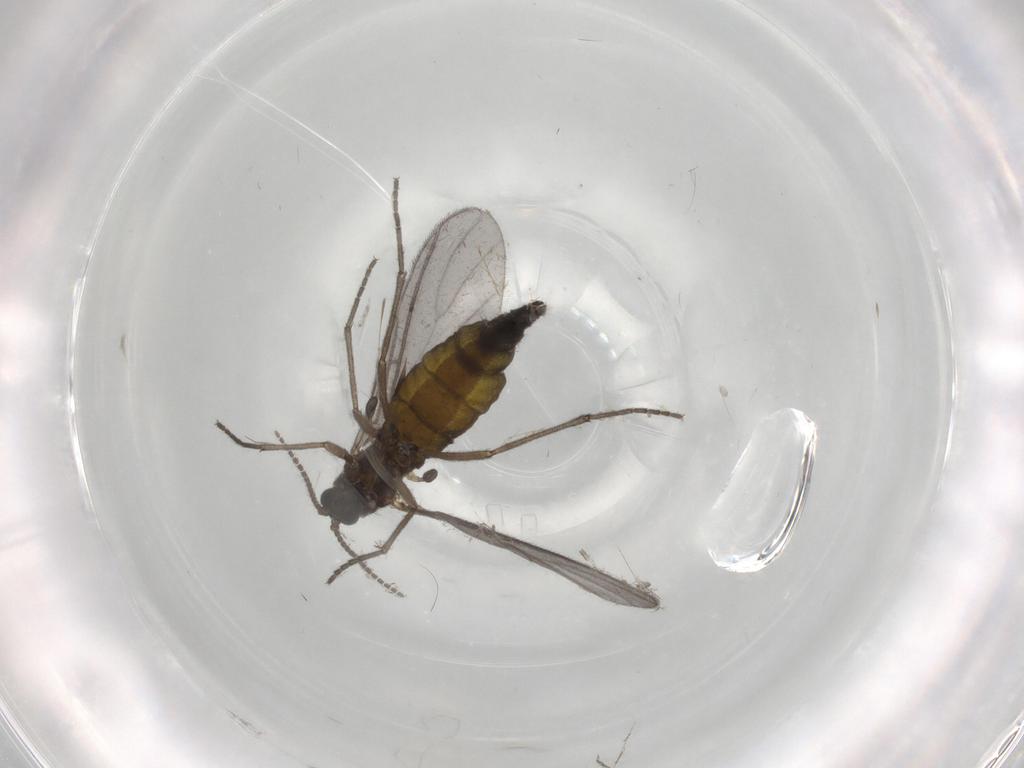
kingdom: Animalia
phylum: Arthropoda
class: Insecta
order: Diptera
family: Sciaridae
